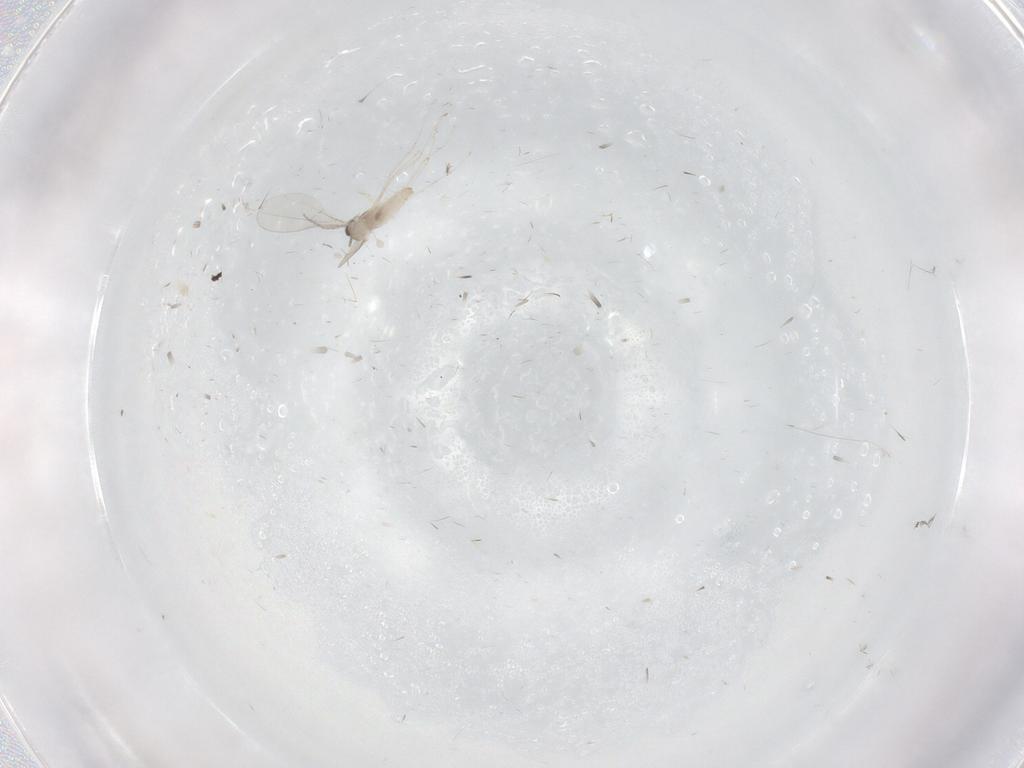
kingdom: Animalia
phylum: Arthropoda
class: Insecta
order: Diptera
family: Cecidomyiidae
